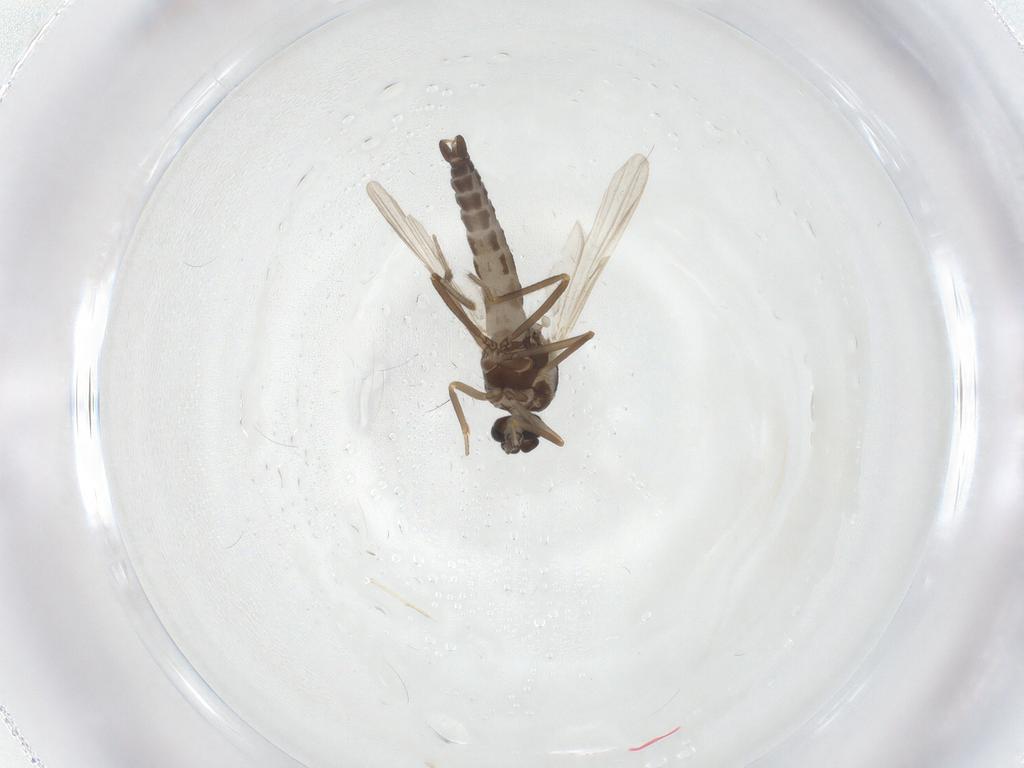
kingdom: Animalia
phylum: Arthropoda
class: Insecta
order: Diptera
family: Ceratopogonidae
